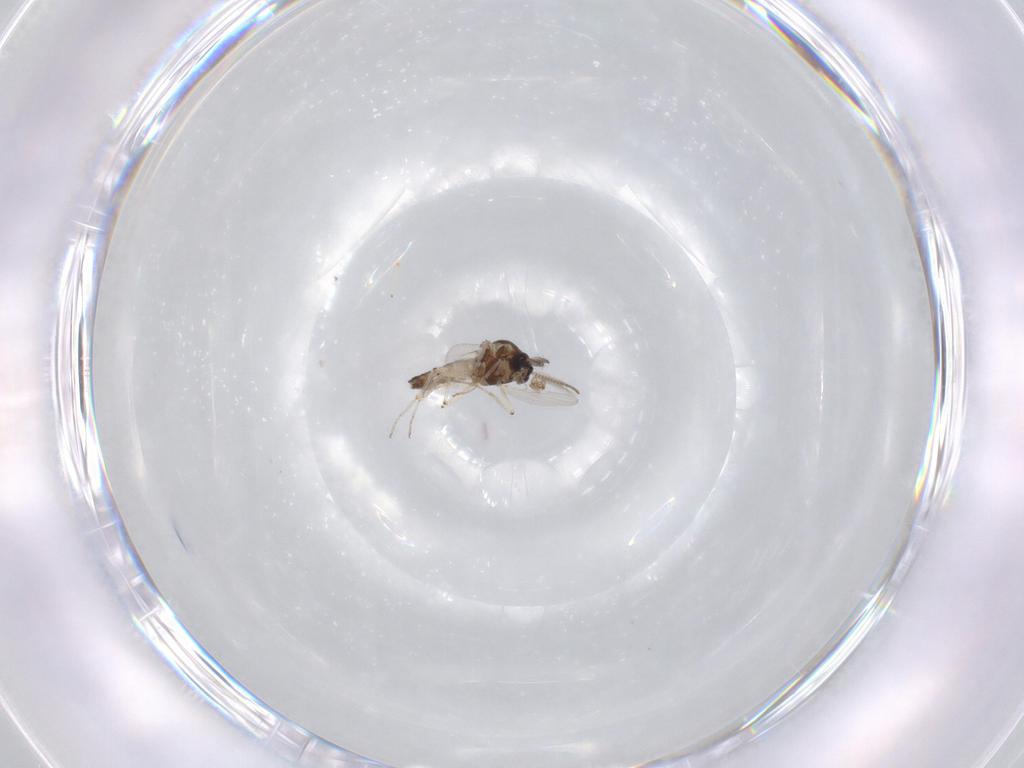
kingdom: Animalia
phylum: Arthropoda
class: Insecta
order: Diptera
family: Ceratopogonidae
